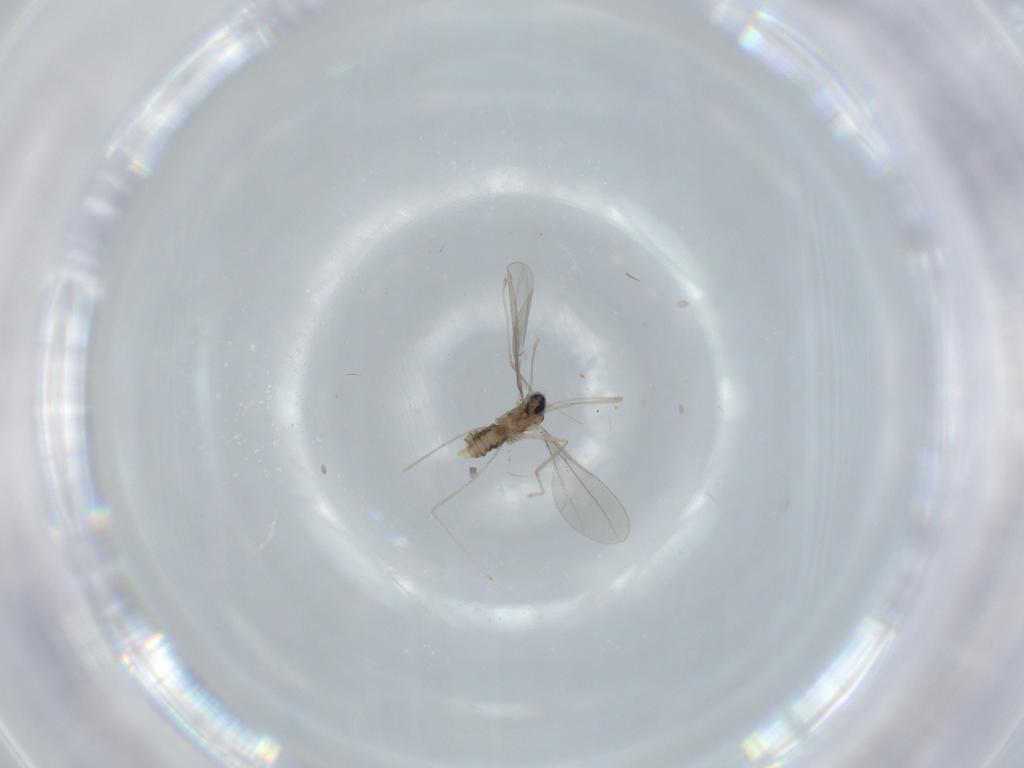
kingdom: Animalia
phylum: Arthropoda
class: Insecta
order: Diptera
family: Cecidomyiidae
